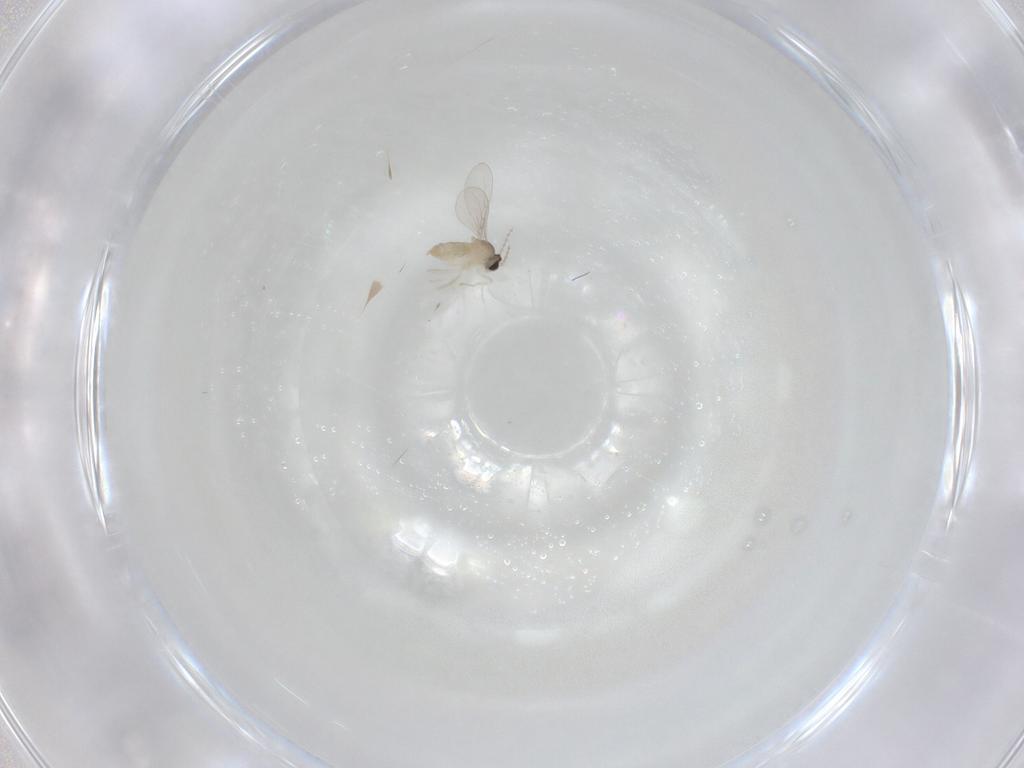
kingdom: Animalia
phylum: Arthropoda
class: Insecta
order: Diptera
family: Cecidomyiidae
